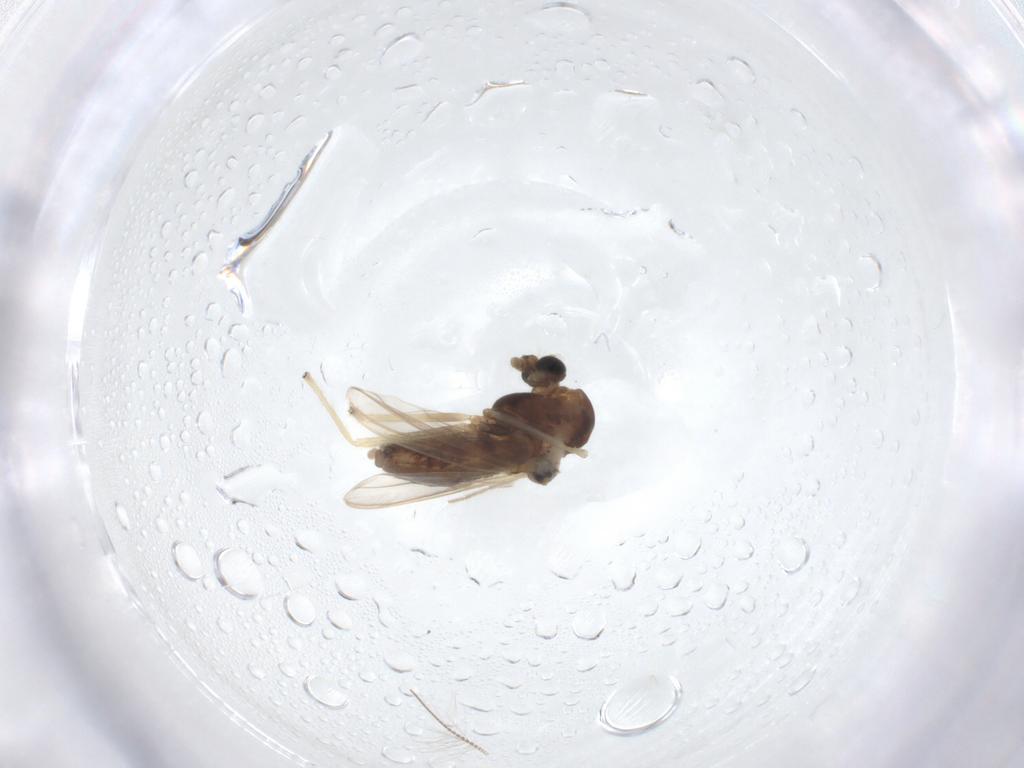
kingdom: Animalia
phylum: Arthropoda
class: Insecta
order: Diptera
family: Chironomidae
